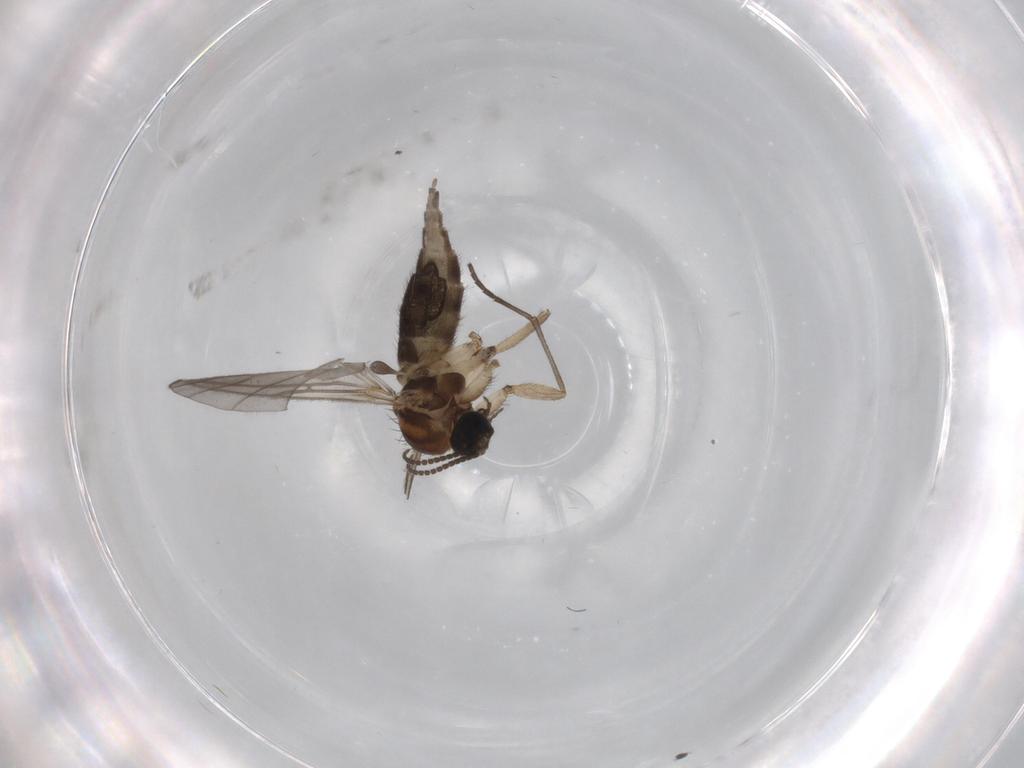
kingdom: Animalia
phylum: Arthropoda
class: Insecta
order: Diptera
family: Sciaridae
